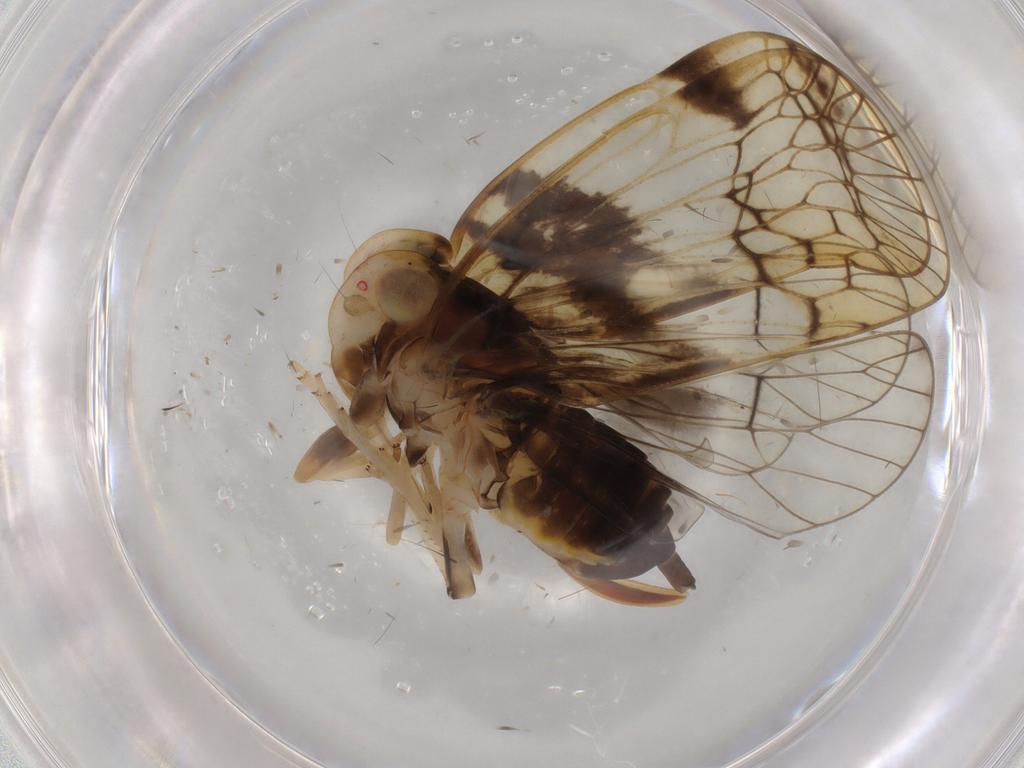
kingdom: Animalia
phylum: Arthropoda
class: Insecta
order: Hemiptera
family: Cixiidae
